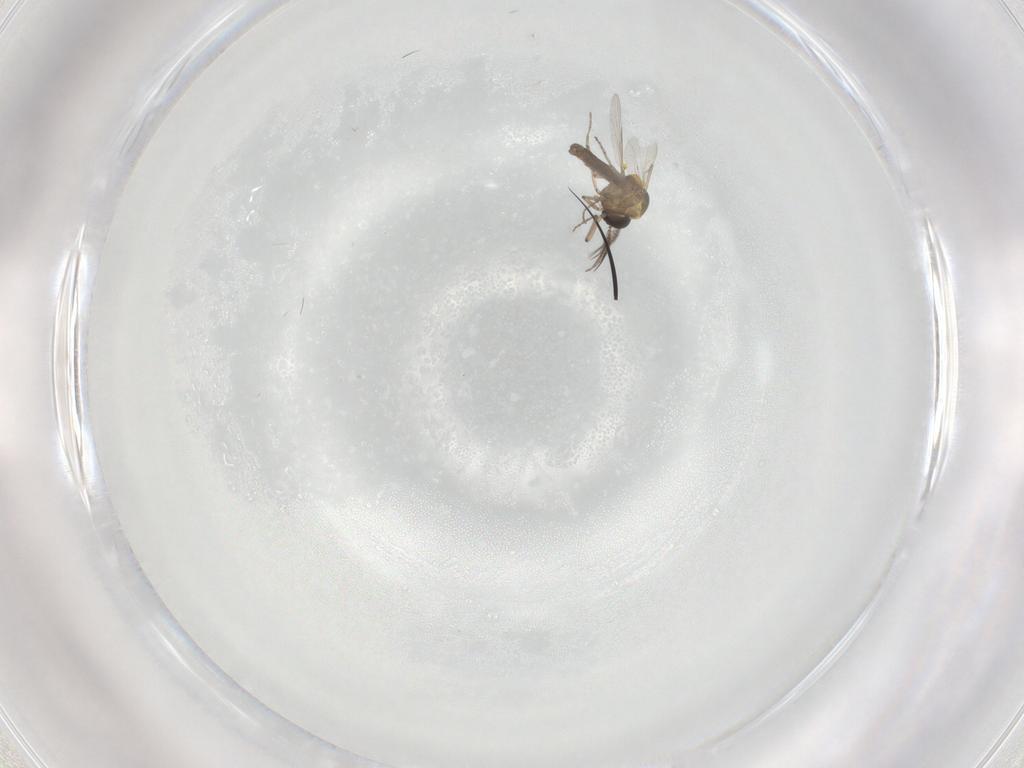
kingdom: Animalia
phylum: Arthropoda
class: Insecta
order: Diptera
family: Ceratopogonidae
